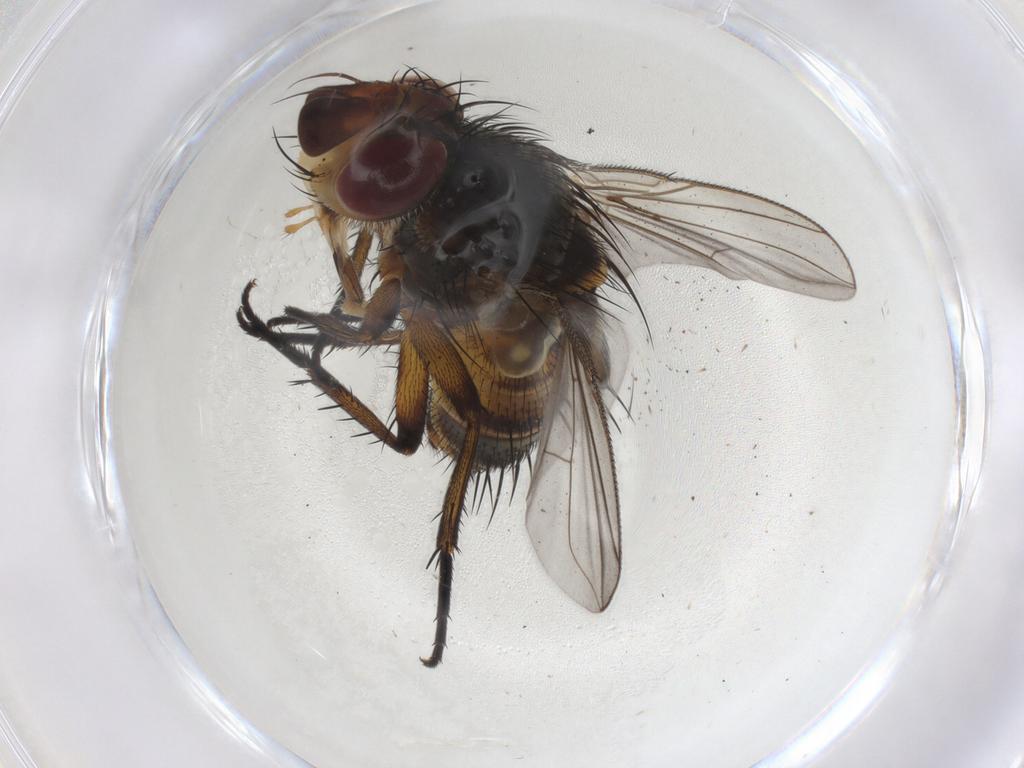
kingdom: Animalia
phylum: Arthropoda
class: Insecta
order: Diptera
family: Tachinidae
